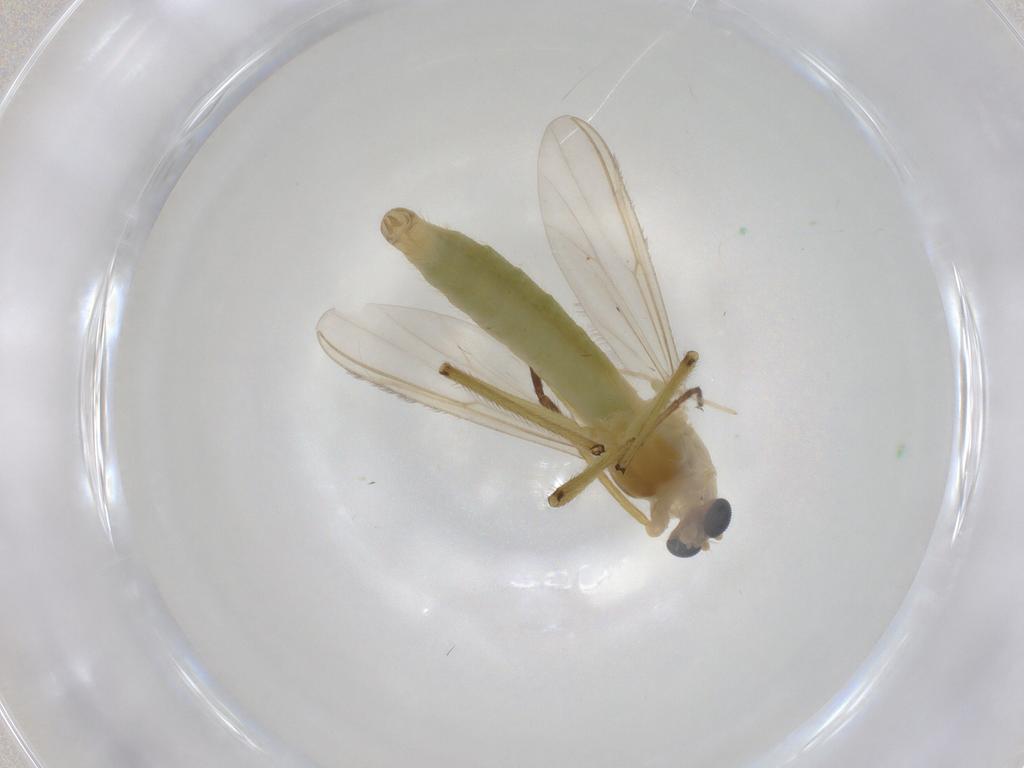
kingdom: Animalia
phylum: Arthropoda
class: Insecta
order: Diptera
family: Chironomidae
